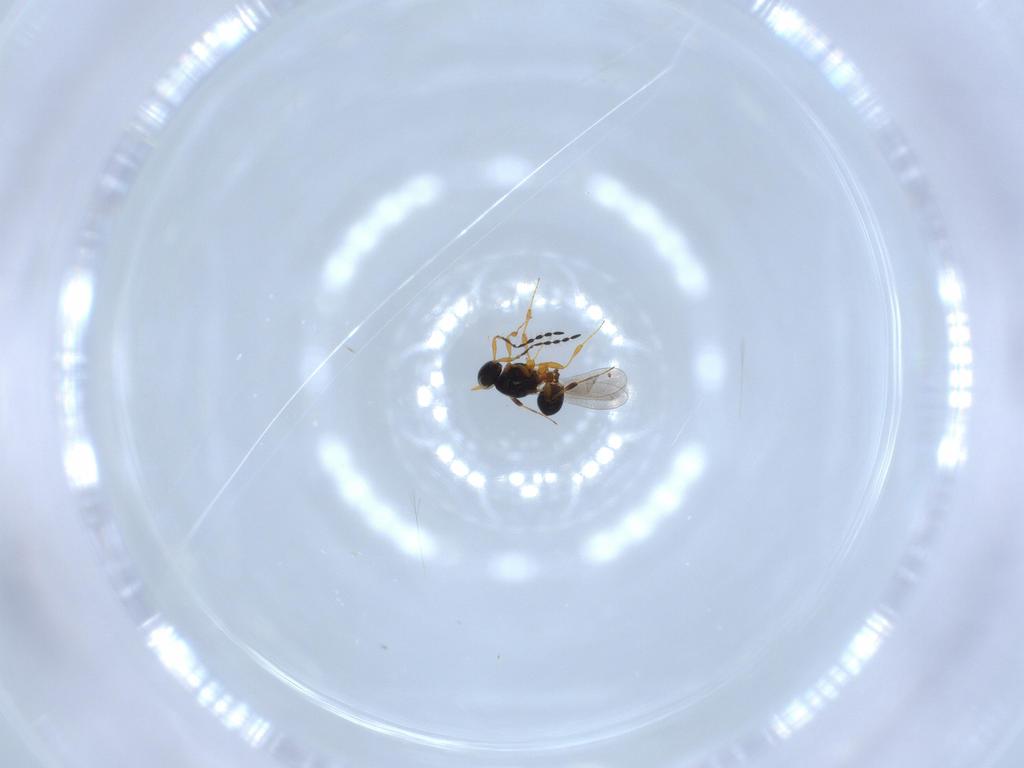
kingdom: Animalia
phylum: Arthropoda
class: Insecta
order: Hymenoptera
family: Platygastridae
